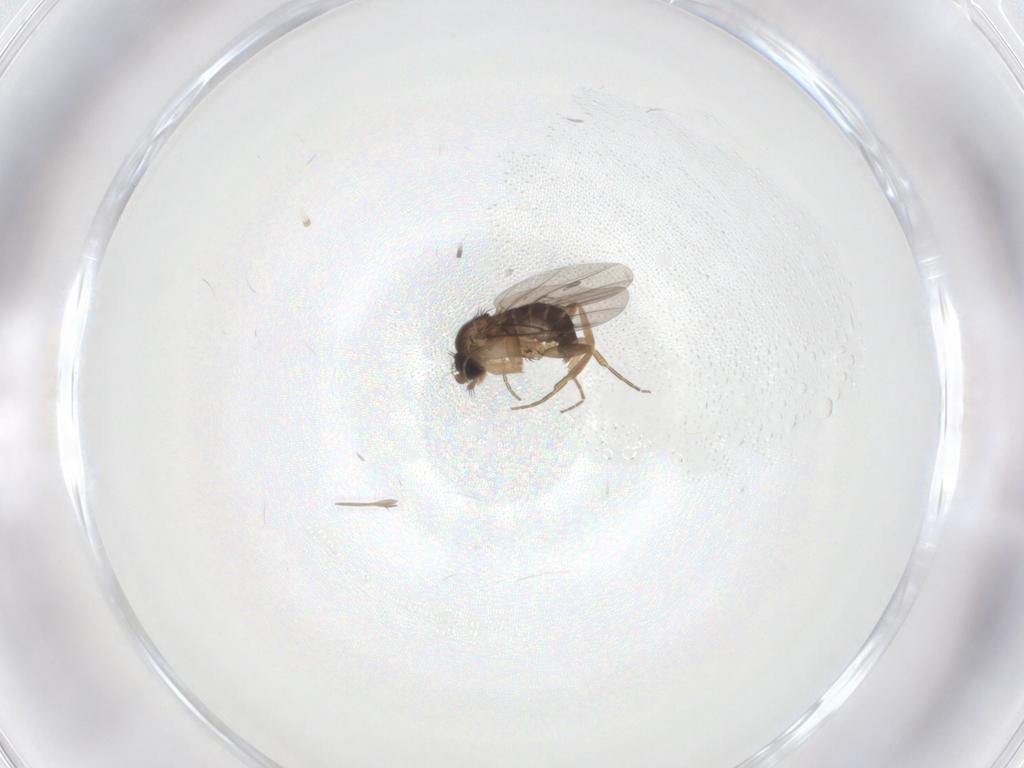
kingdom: Animalia
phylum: Arthropoda
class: Insecta
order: Diptera
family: Ceratopogonidae
